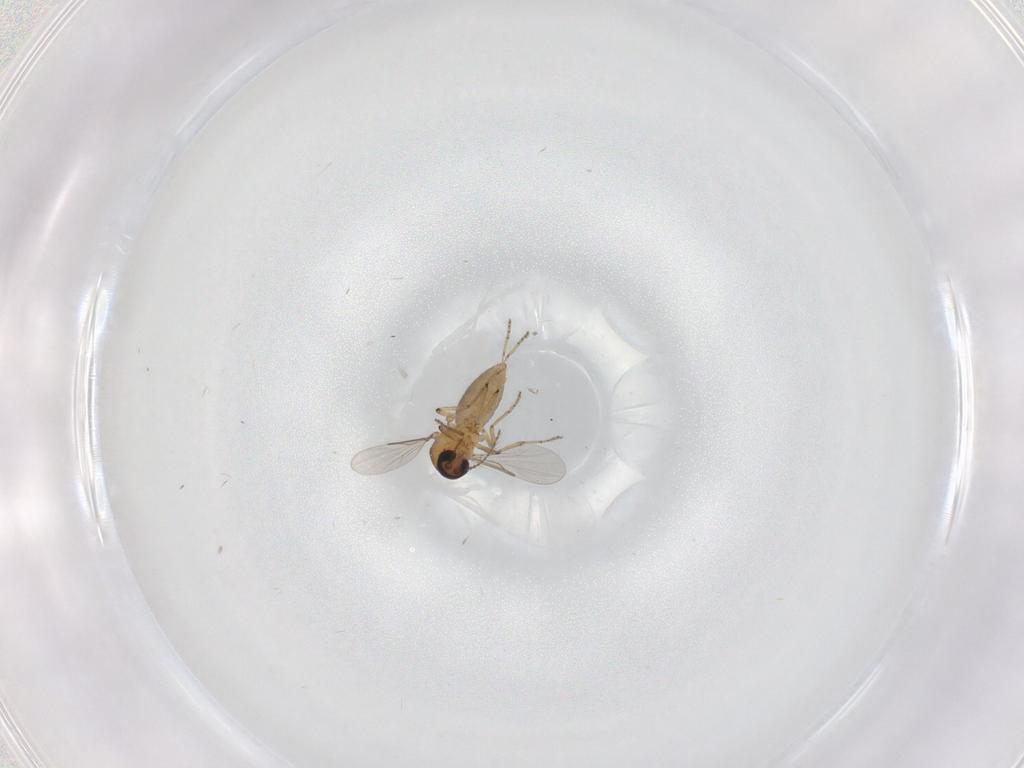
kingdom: Animalia
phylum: Arthropoda
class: Insecta
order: Diptera
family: Ceratopogonidae
